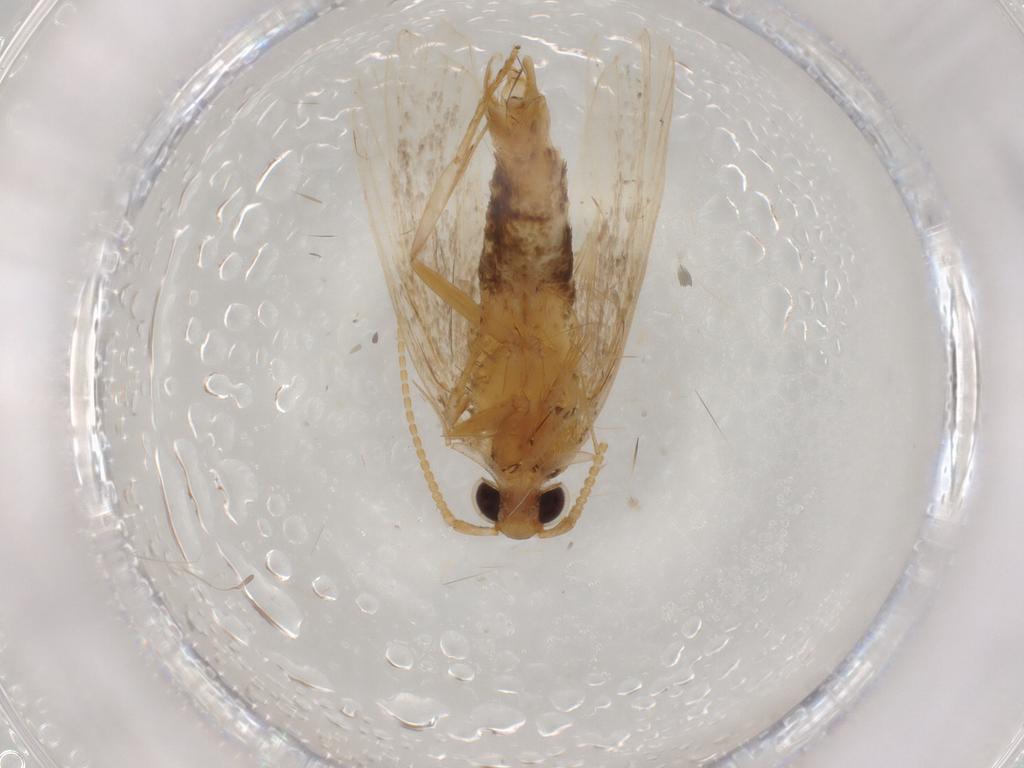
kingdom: Animalia
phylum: Arthropoda
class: Insecta
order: Lepidoptera
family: Lecithoceridae
